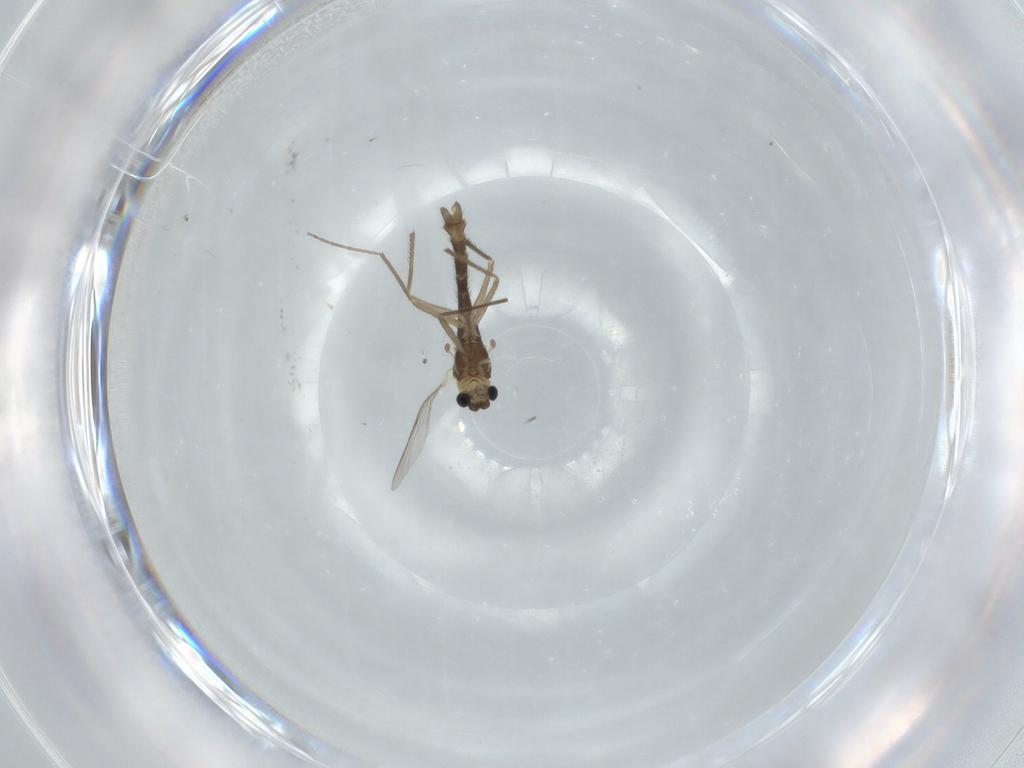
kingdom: Animalia
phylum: Arthropoda
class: Insecta
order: Diptera
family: Chironomidae
